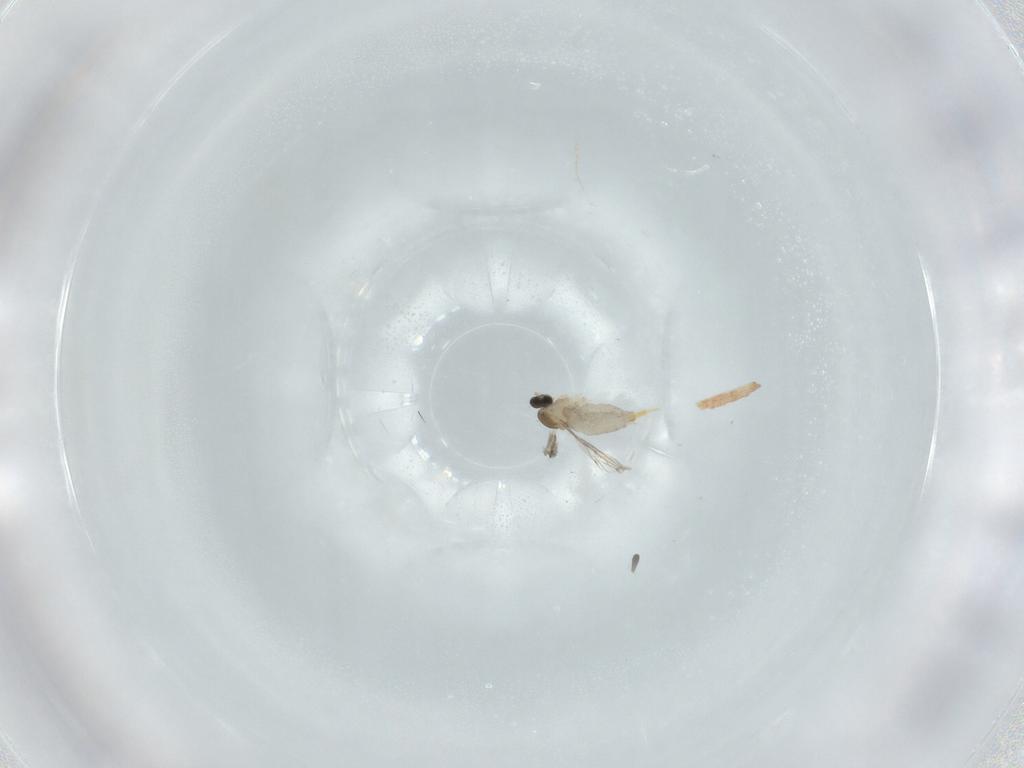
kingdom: Animalia
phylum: Arthropoda
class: Insecta
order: Diptera
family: Cecidomyiidae
